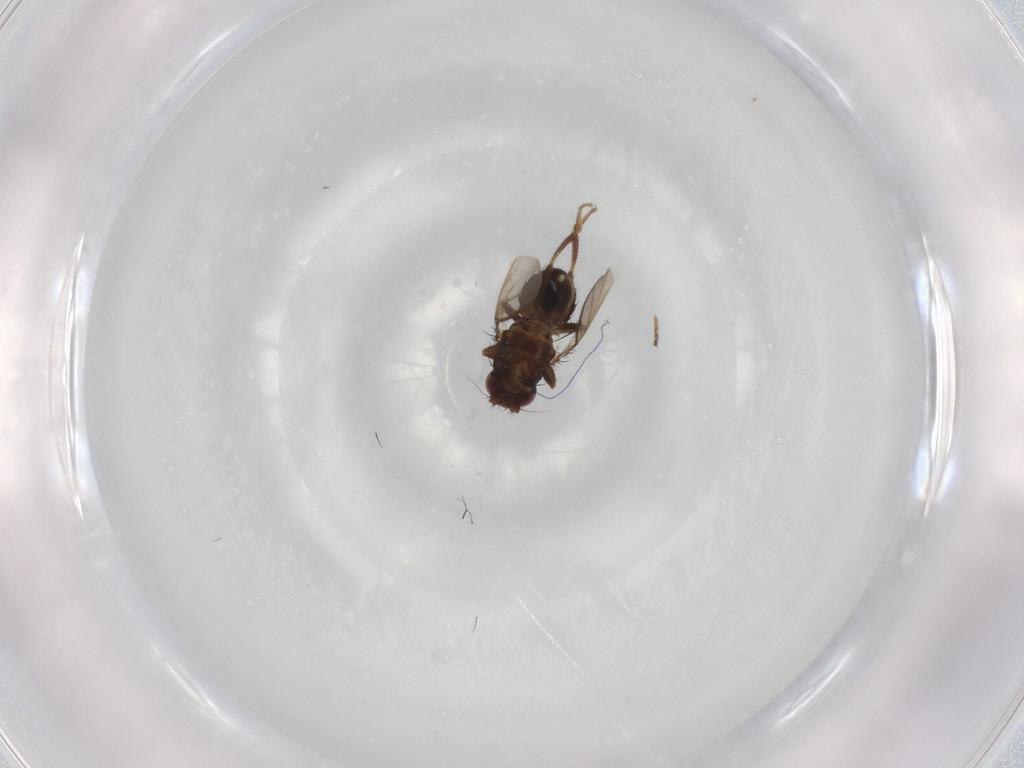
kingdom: Animalia
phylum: Arthropoda
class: Insecta
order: Diptera
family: Sphaeroceridae
